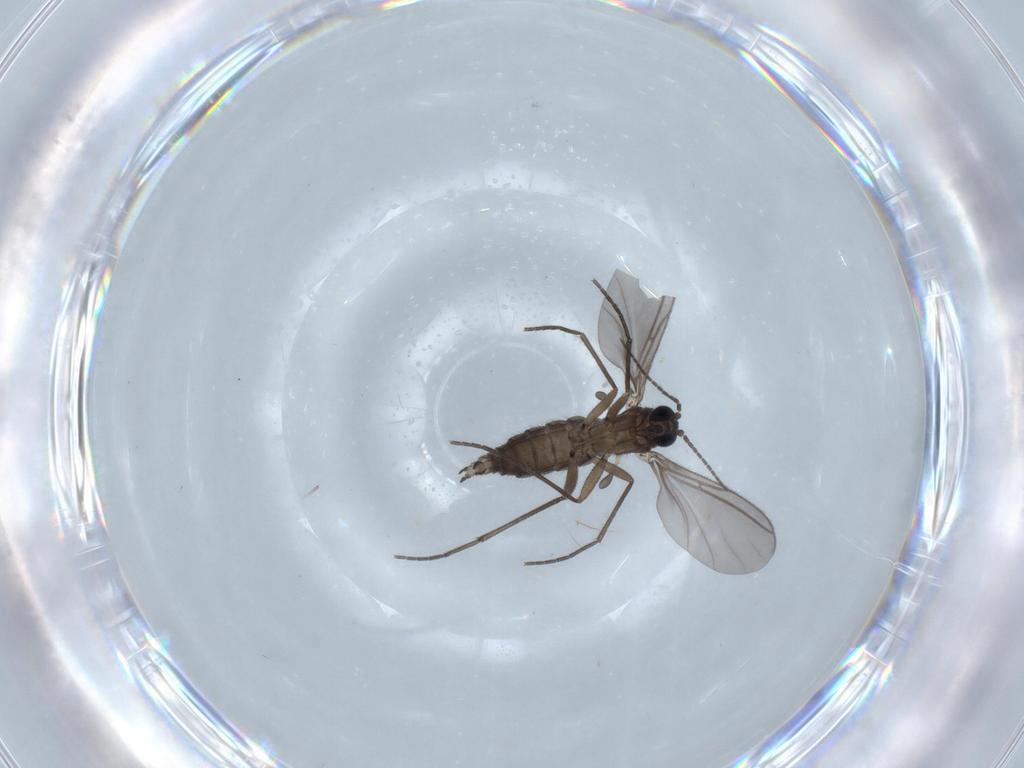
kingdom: Animalia
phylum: Arthropoda
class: Insecta
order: Diptera
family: Sciaridae
